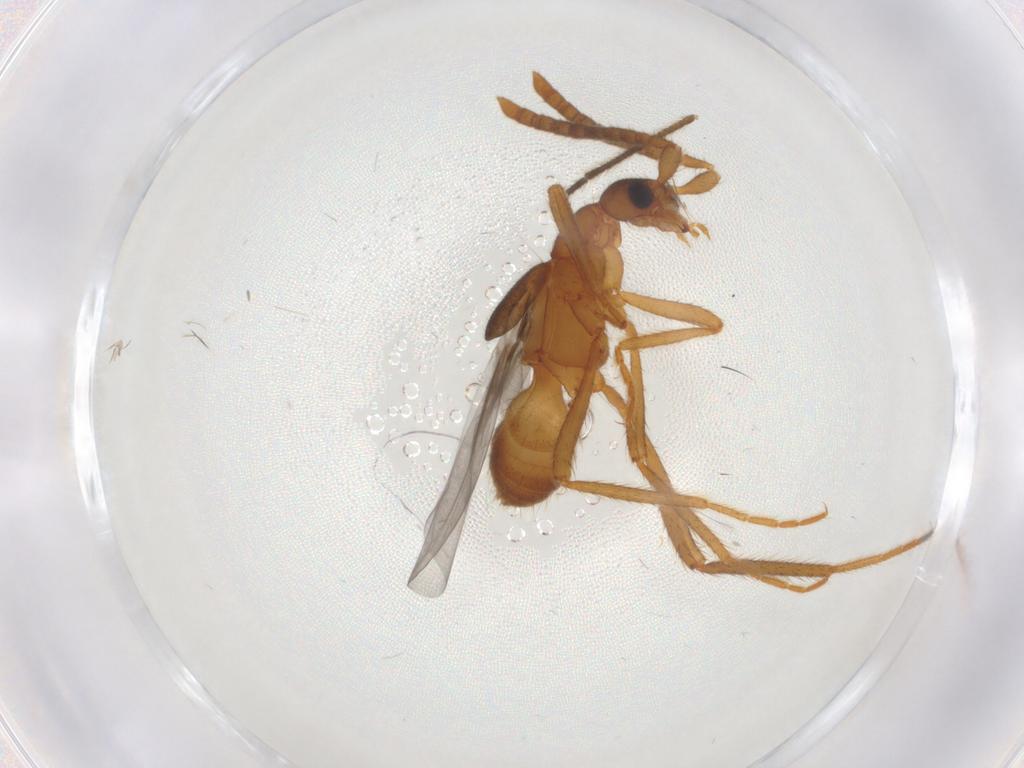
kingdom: Animalia
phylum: Arthropoda
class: Insecta
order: Coleoptera
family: Staphylinidae
